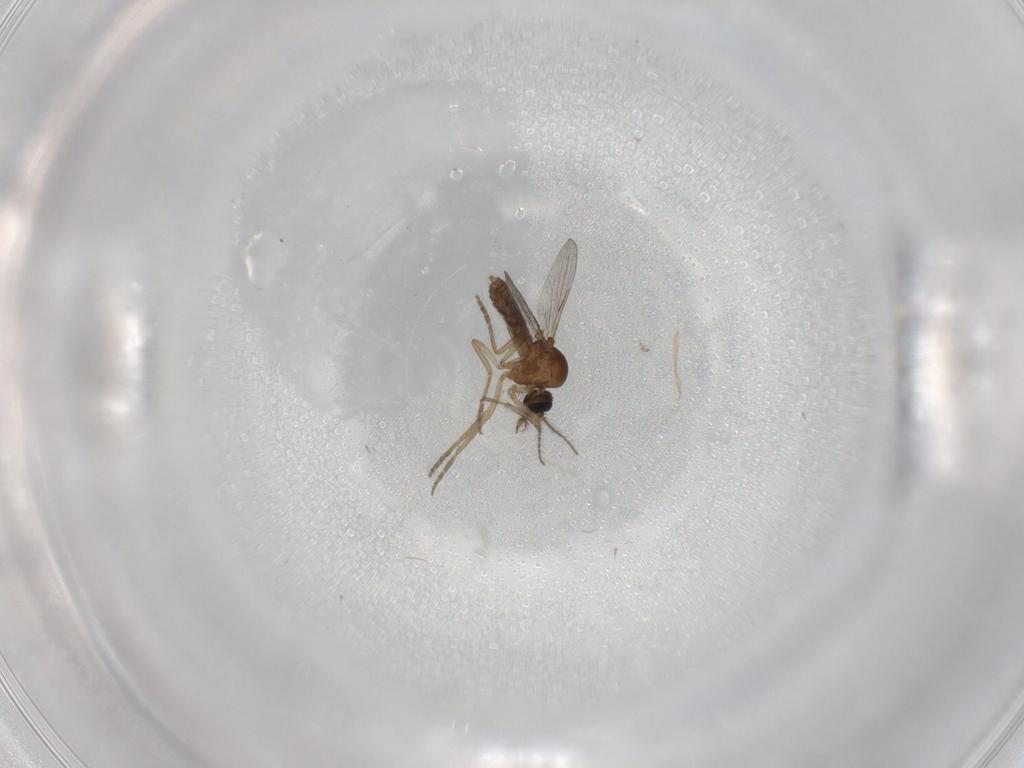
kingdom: Animalia
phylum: Arthropoda
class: Insecta
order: Diptera
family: Ceratopogonidae
